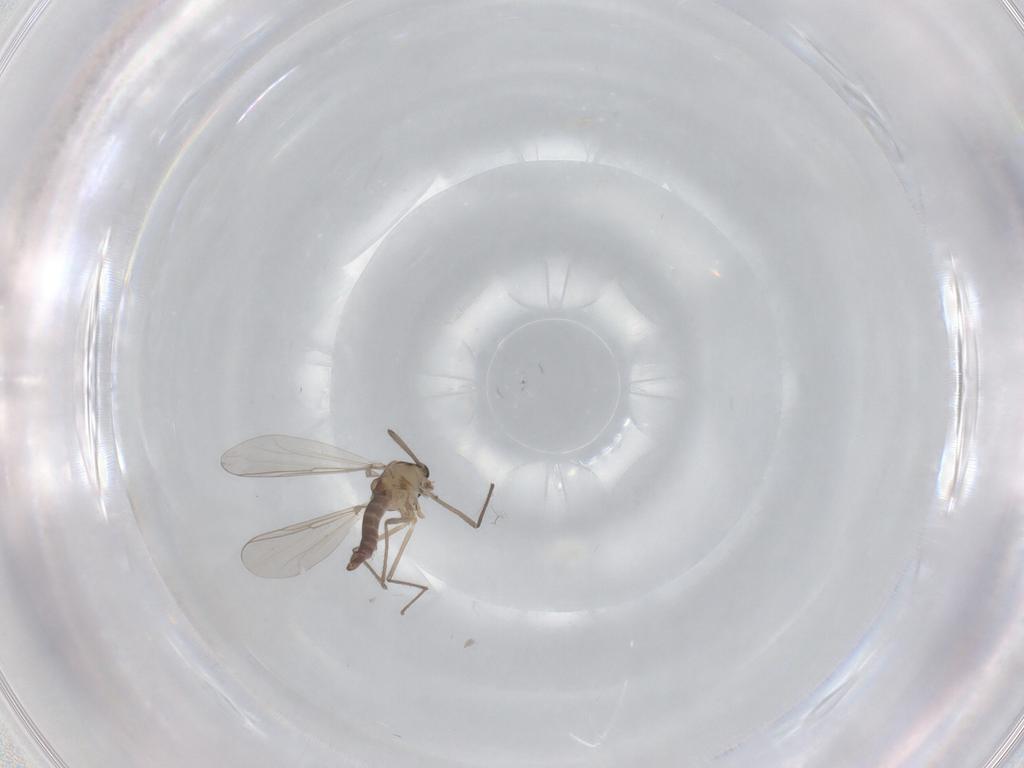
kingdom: Animalia
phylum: Arthropoda
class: Insecta
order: Diptera
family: Chironomidae
